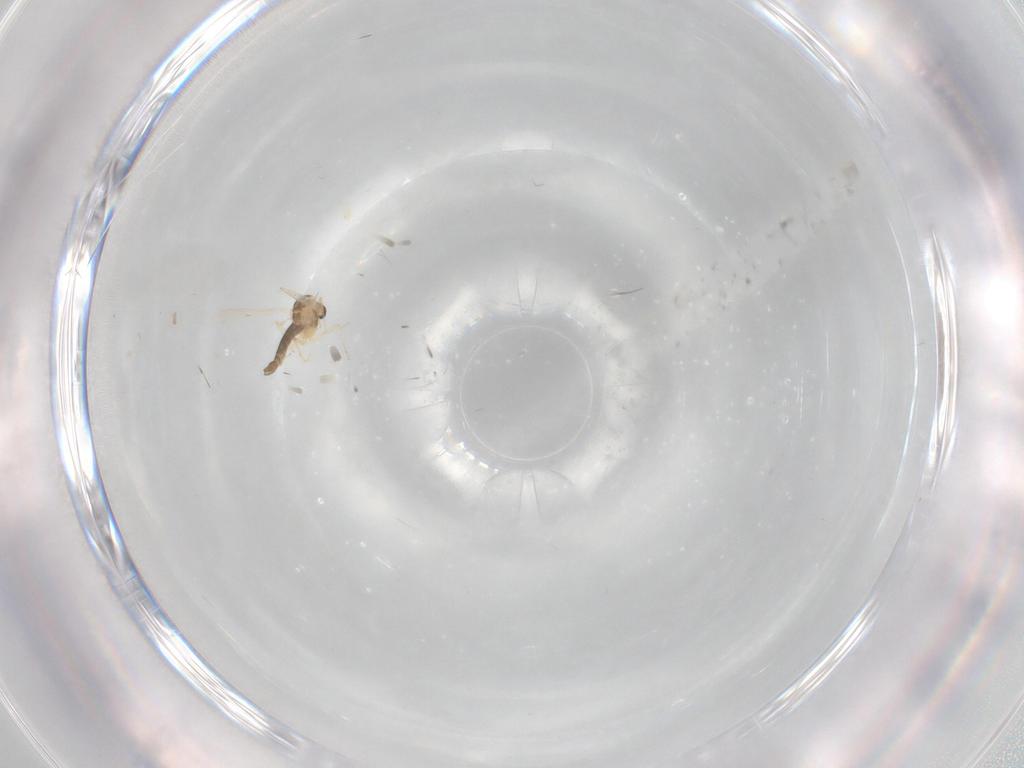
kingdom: Animalia
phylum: Arthropoda
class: Insecta
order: Diptera
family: Chironomidae
